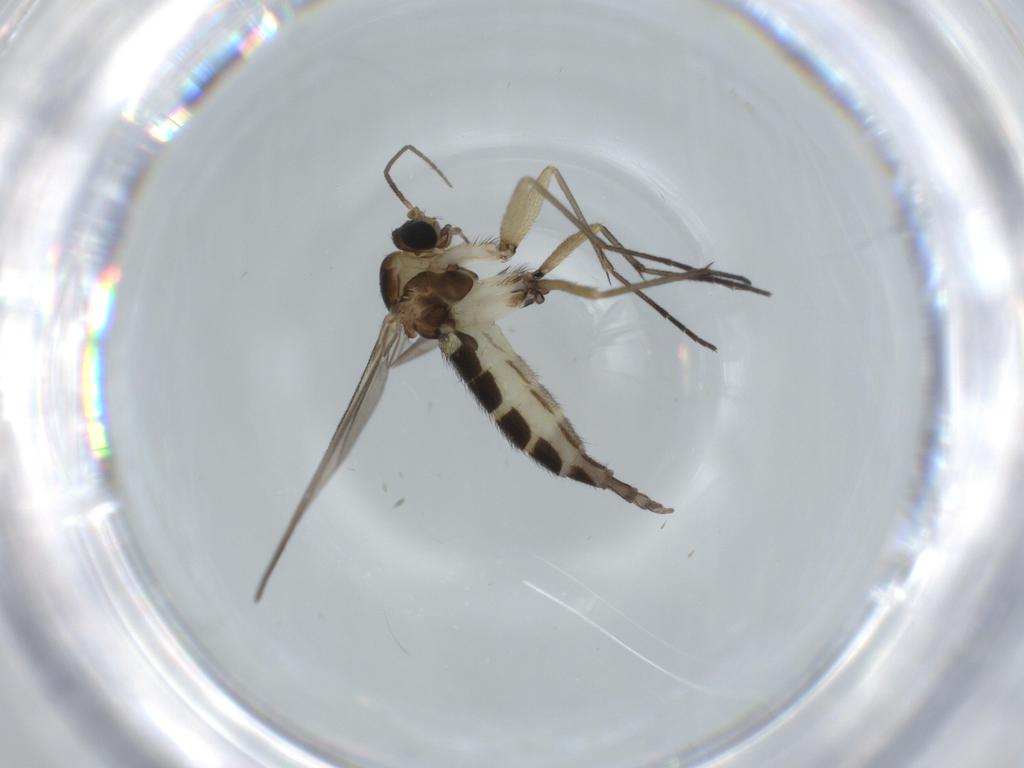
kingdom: Animalia
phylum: Arthropoda
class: Insecta
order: Diptera
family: Sciaridae
